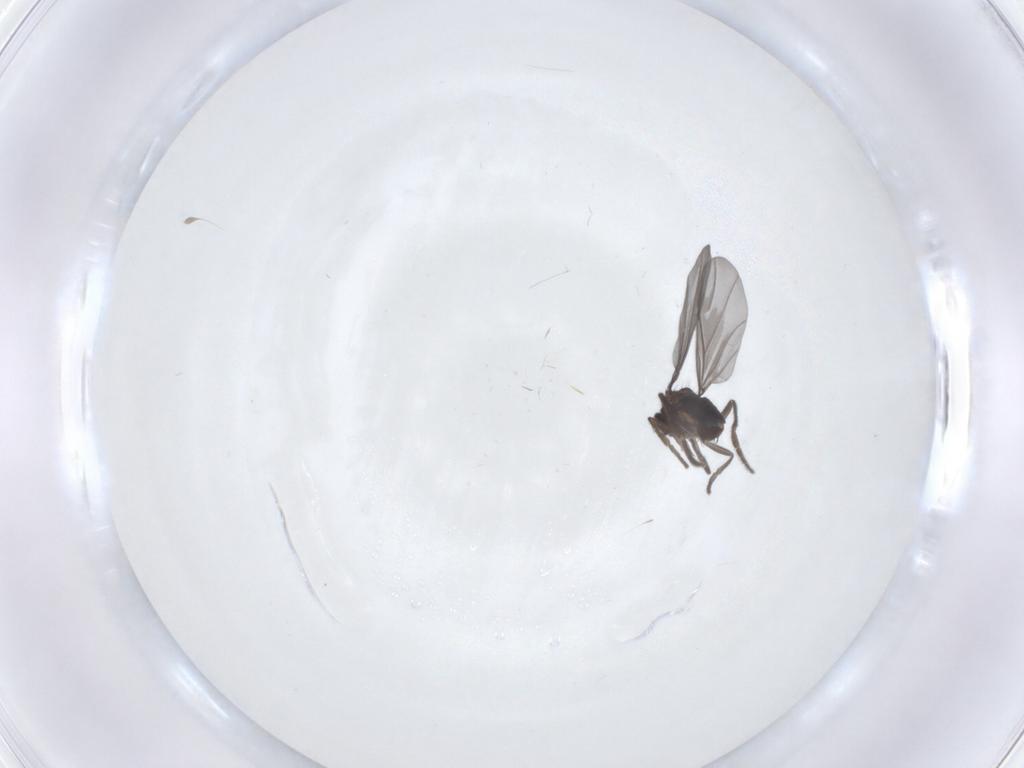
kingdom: Animalia
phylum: Arthropoda
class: Insecta
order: Diptera
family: Phoridae
